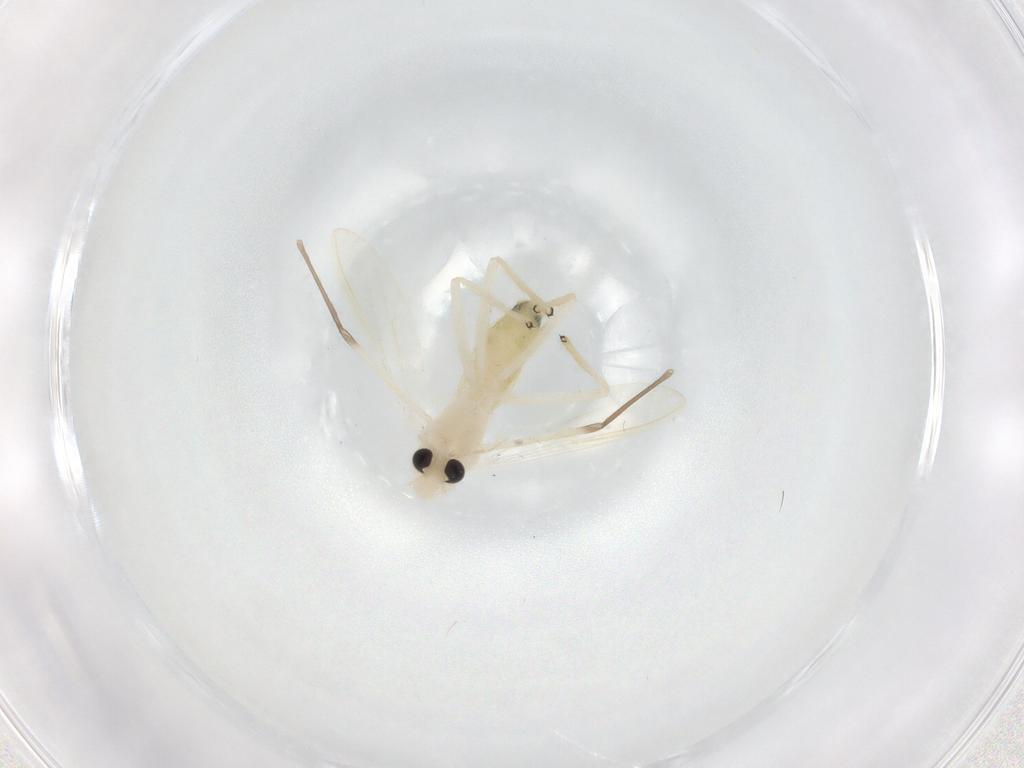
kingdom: Animalia
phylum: Arthropoda
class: Insecta
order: Diptera
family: Chironomidae
